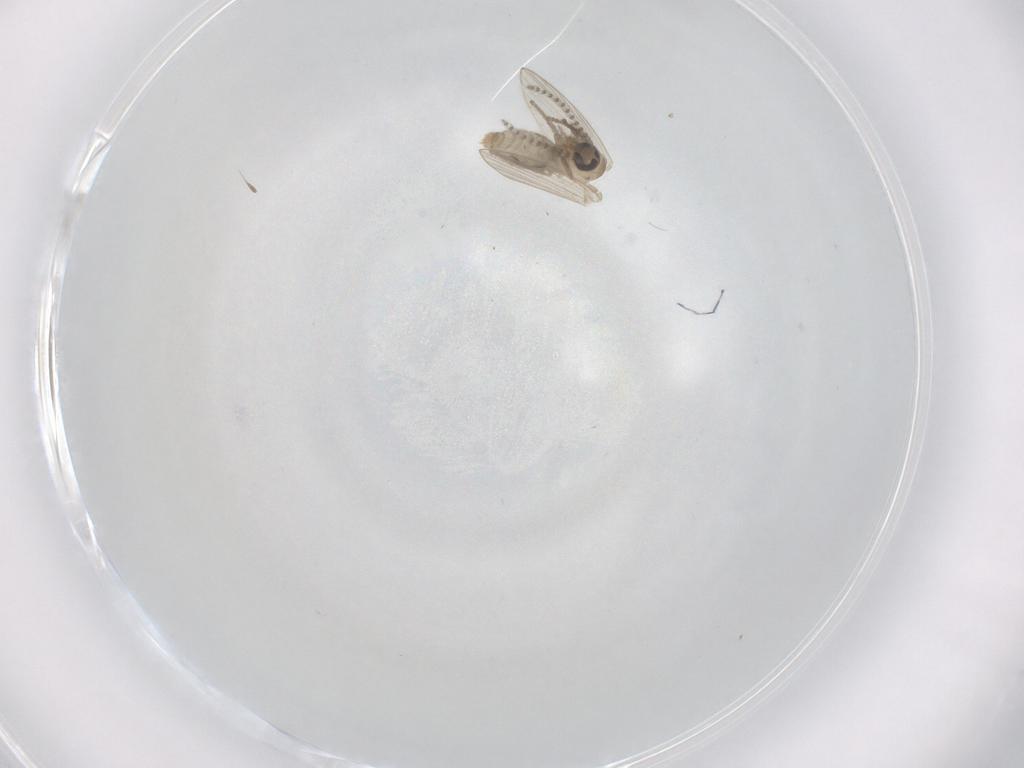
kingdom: Animalia
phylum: Arthropoda
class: Insecta
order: Diptera
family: Psychodidae
